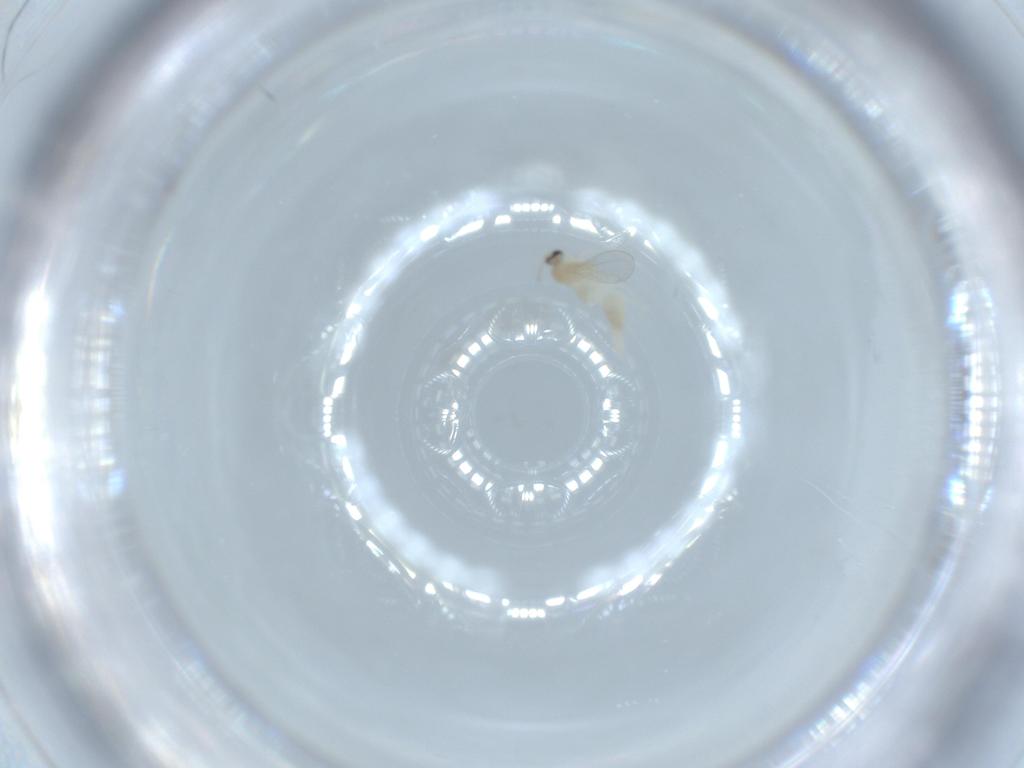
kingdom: Animalia
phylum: Arthropoda
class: Insecta
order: Diptera
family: Cecidomyiidae
